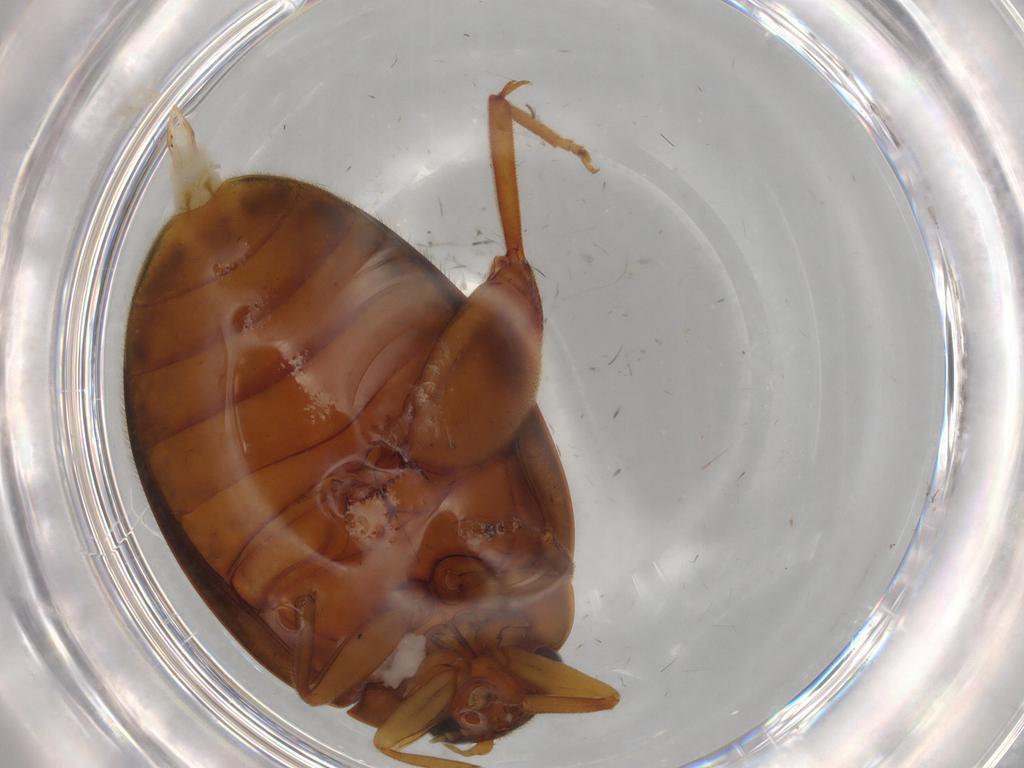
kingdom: Animalia
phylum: Arthropoda
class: Insecta
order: Coleoptera
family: Scirtidae
